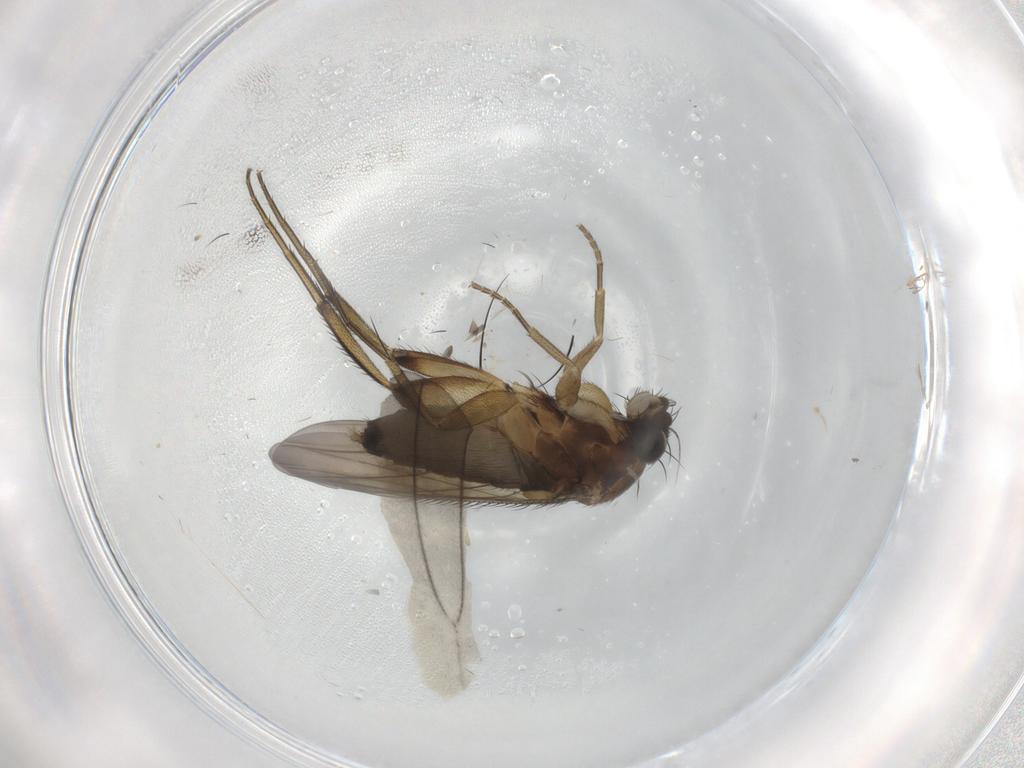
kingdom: Animalia
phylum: Arthropoda
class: Insecta
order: Diptera
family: Phoridae
